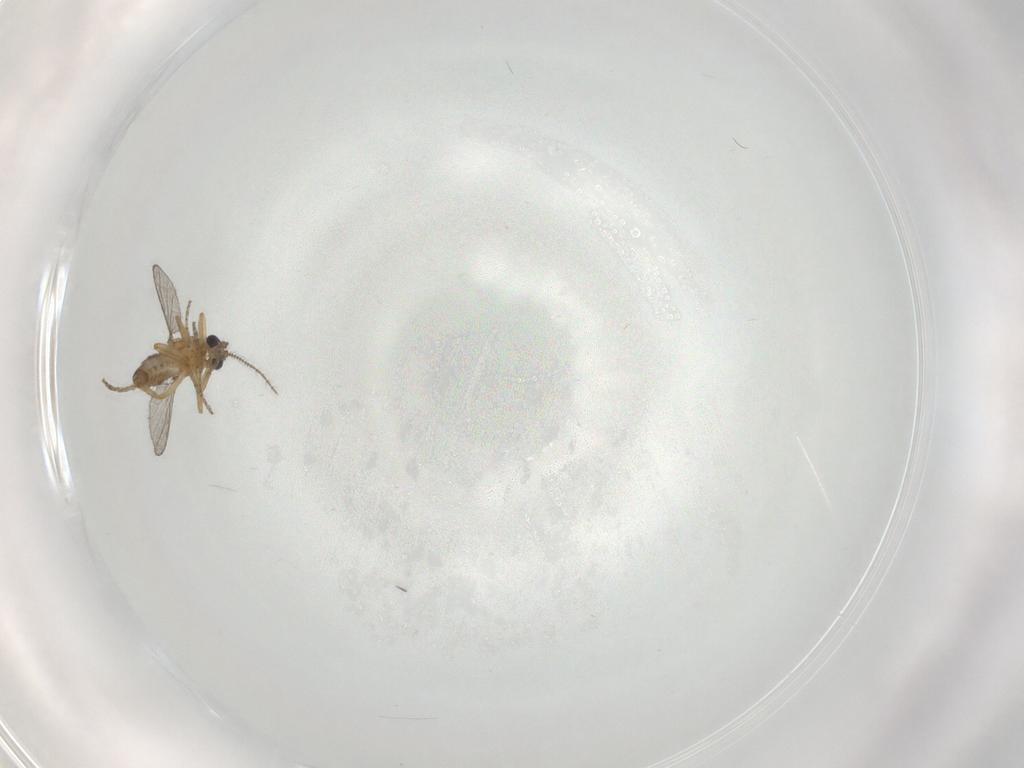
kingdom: Animalia
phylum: Arthropoda
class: Insecta
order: Diptera
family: Ceratopogonidae
